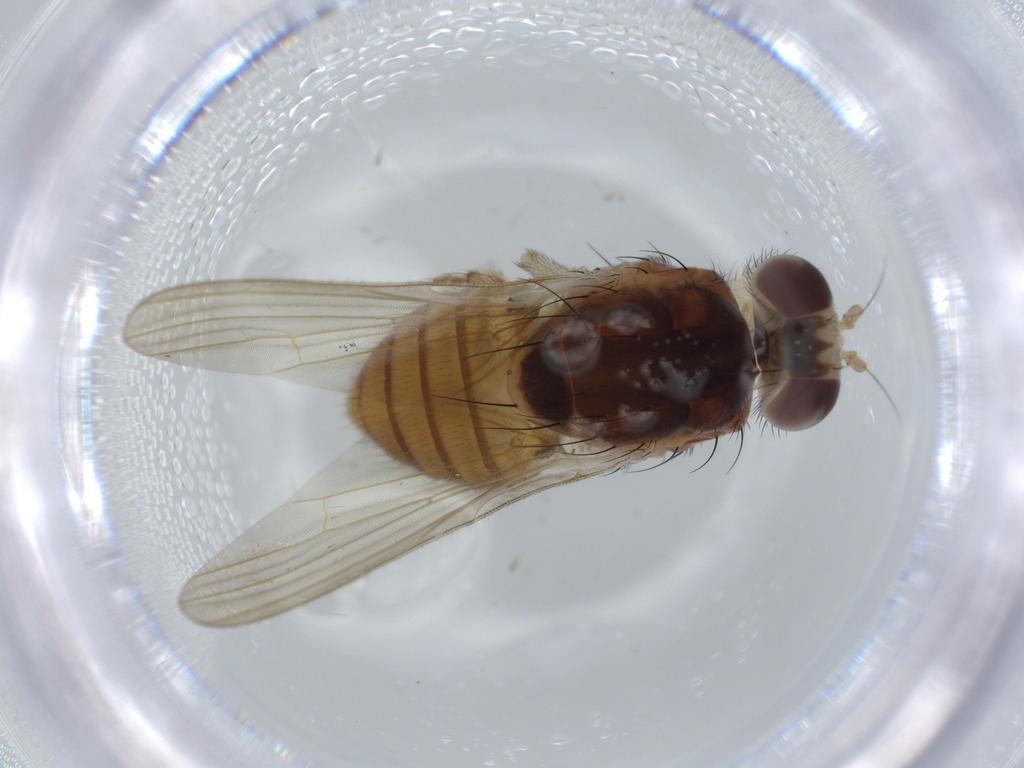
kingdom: Animalia
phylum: Arthropoda
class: Insecta
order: Diptera
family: Lauxaniidae
